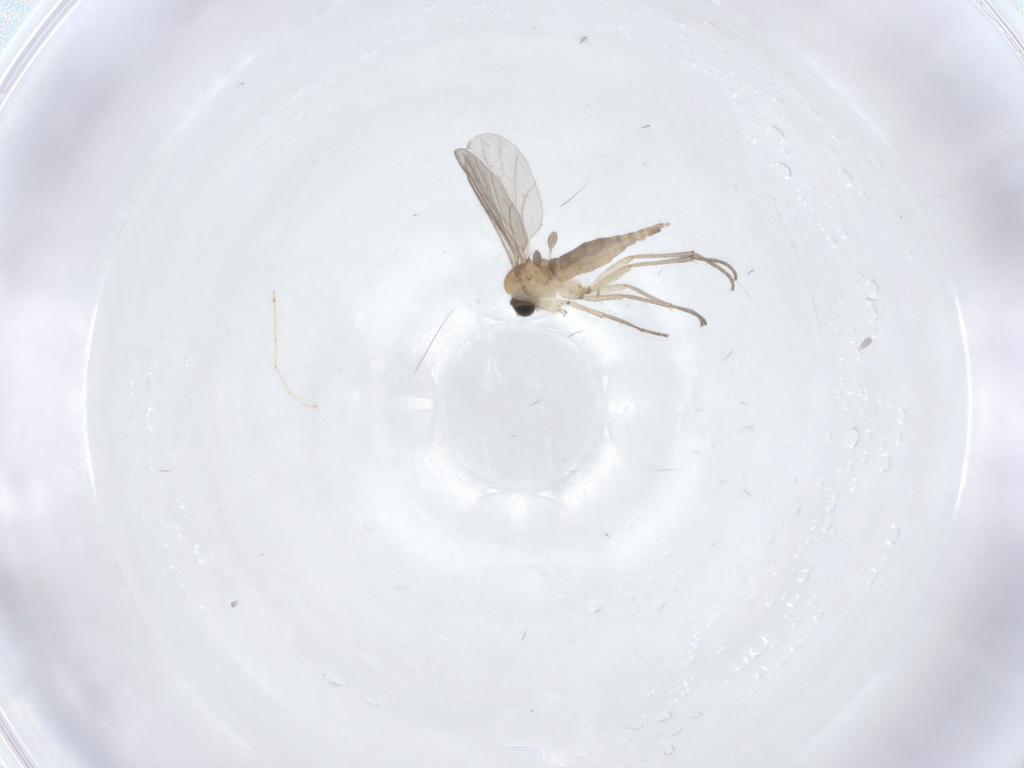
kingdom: Animalia
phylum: Arthropoda
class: Insecta
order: Diptera
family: Sciaridae
